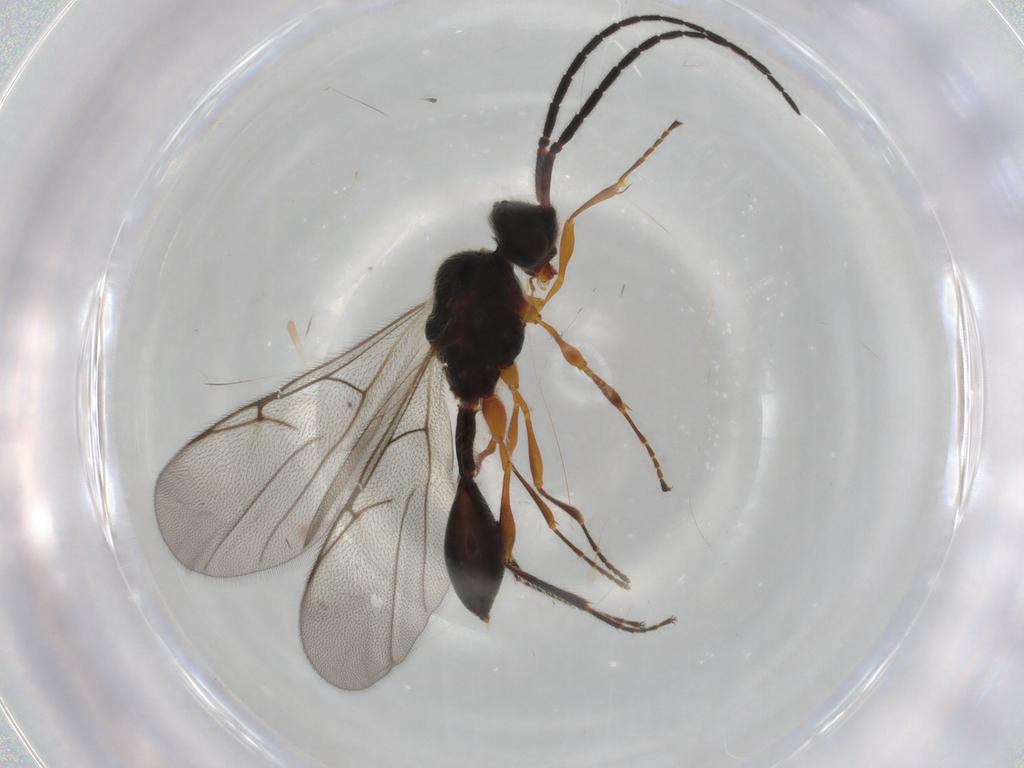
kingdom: Animalia
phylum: Arthropoda
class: Insecta
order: Hymenoptera
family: Diapriidae
